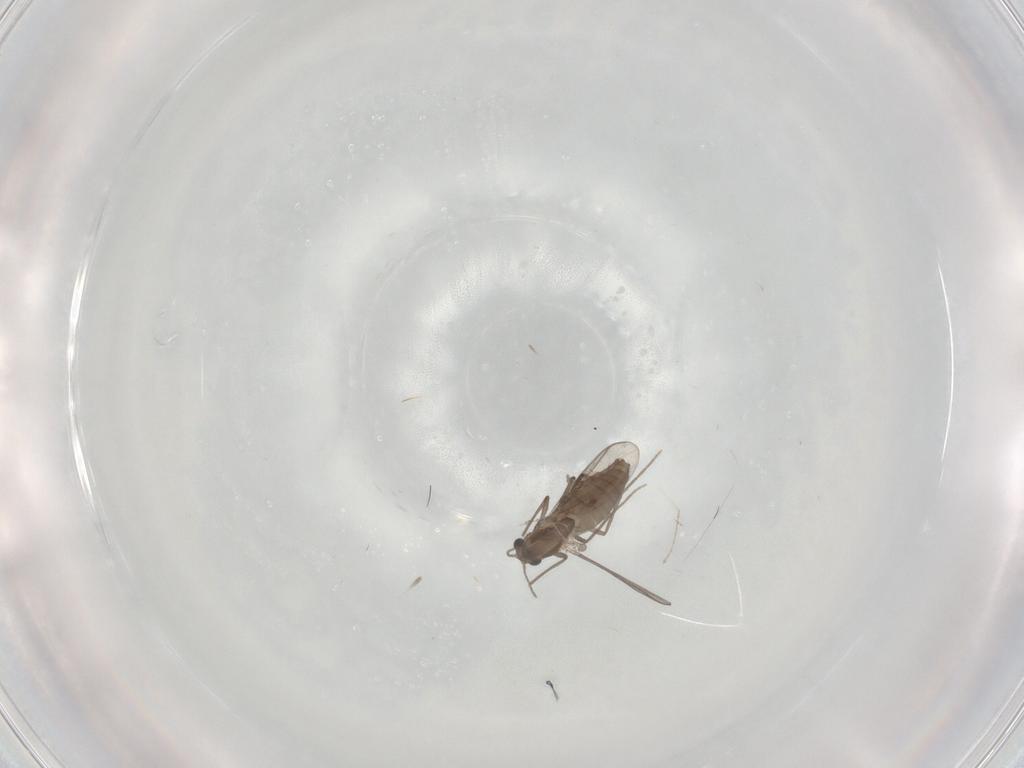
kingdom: Animalia
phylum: Arthropoda
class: Insecta
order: Diptera
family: Chironomidae
